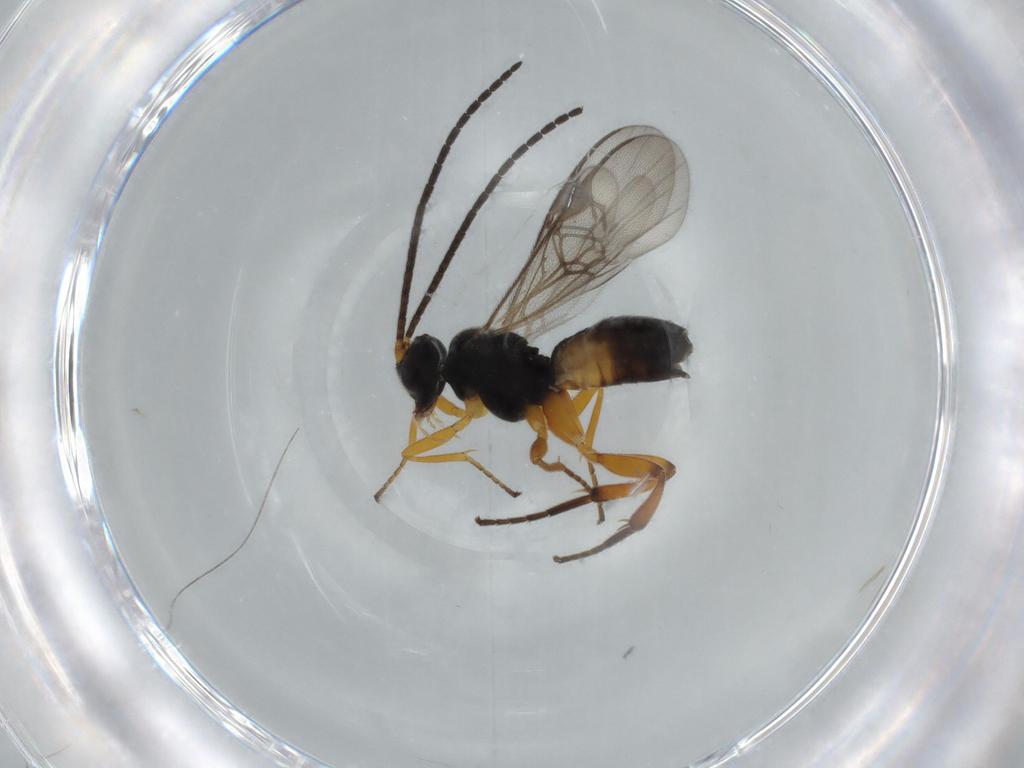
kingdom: Animalia
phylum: Arthropoda
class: Insecta
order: Hymenoptera
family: Braconidae
